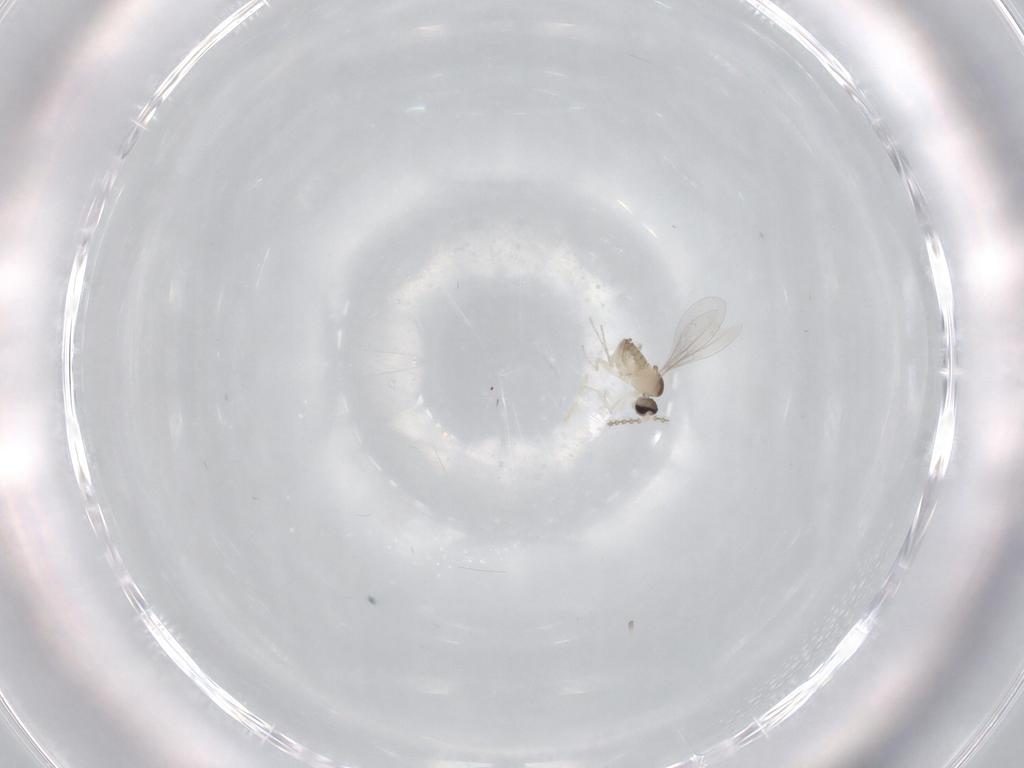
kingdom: Animalia
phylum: Arthropoda
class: Insecta
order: Diptera
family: Cecidomyiidae
